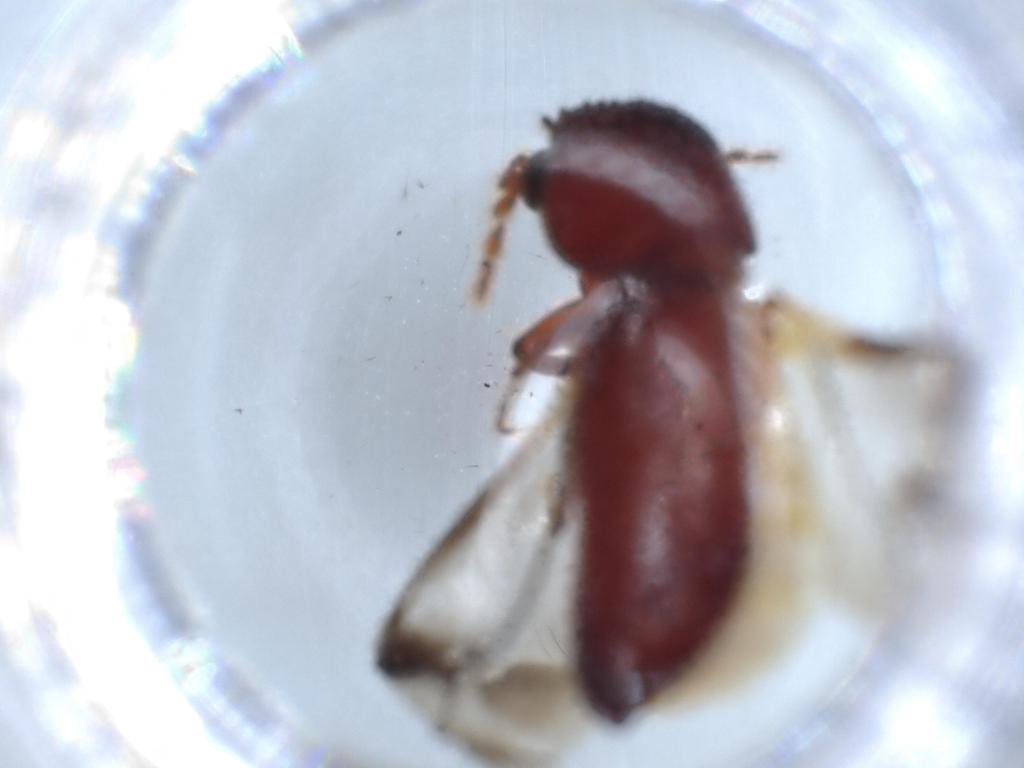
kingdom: Animalia
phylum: Arthropoda
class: Insecta
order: Coleoptera
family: Bostrichidae
